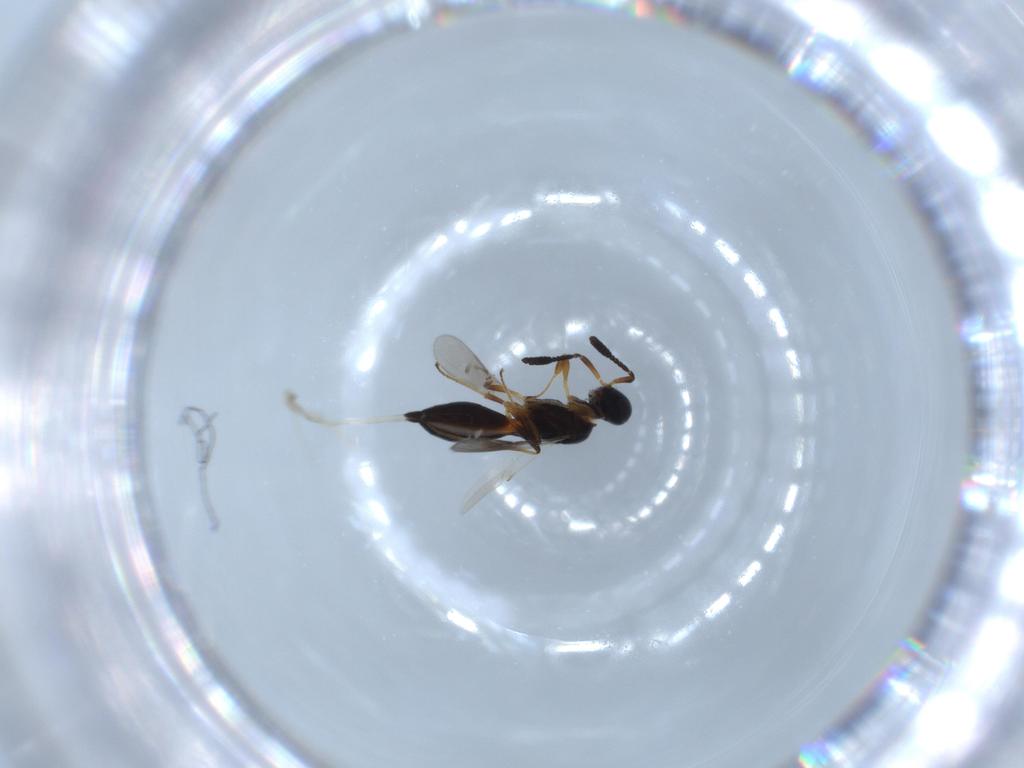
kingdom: Animalia
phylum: Arthropoda
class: Insecta
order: Hymenoptera
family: Scelionidae
